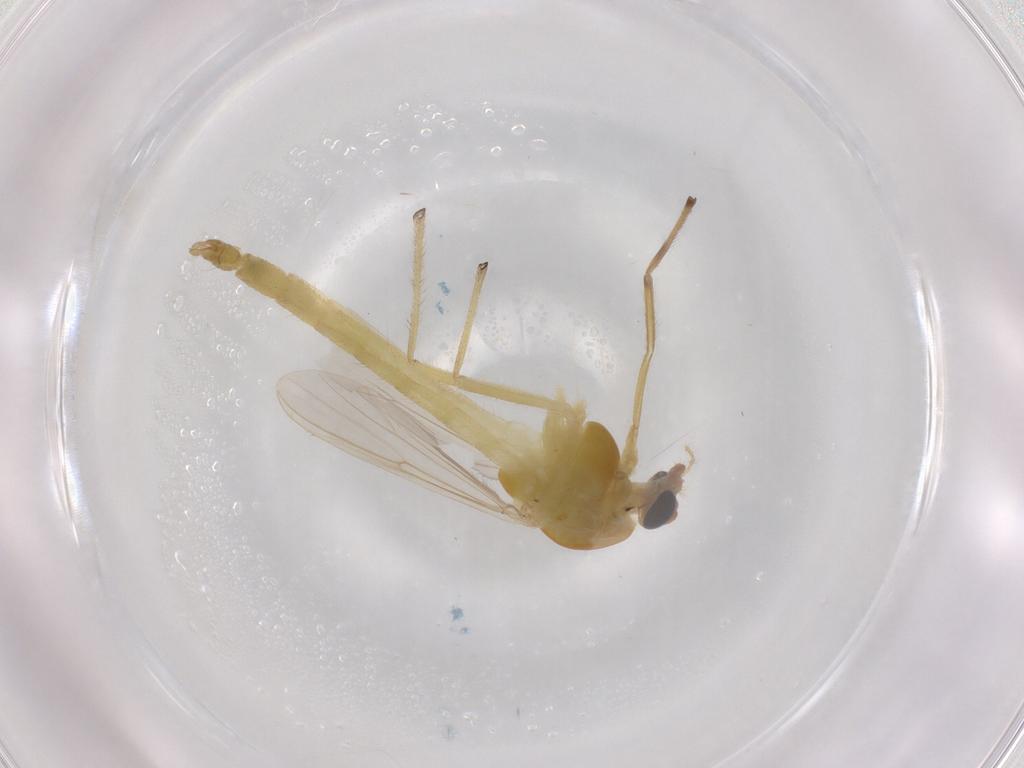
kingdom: Animalia
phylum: Arthropoda
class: Insecta
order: Diptera
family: Chironomidae
